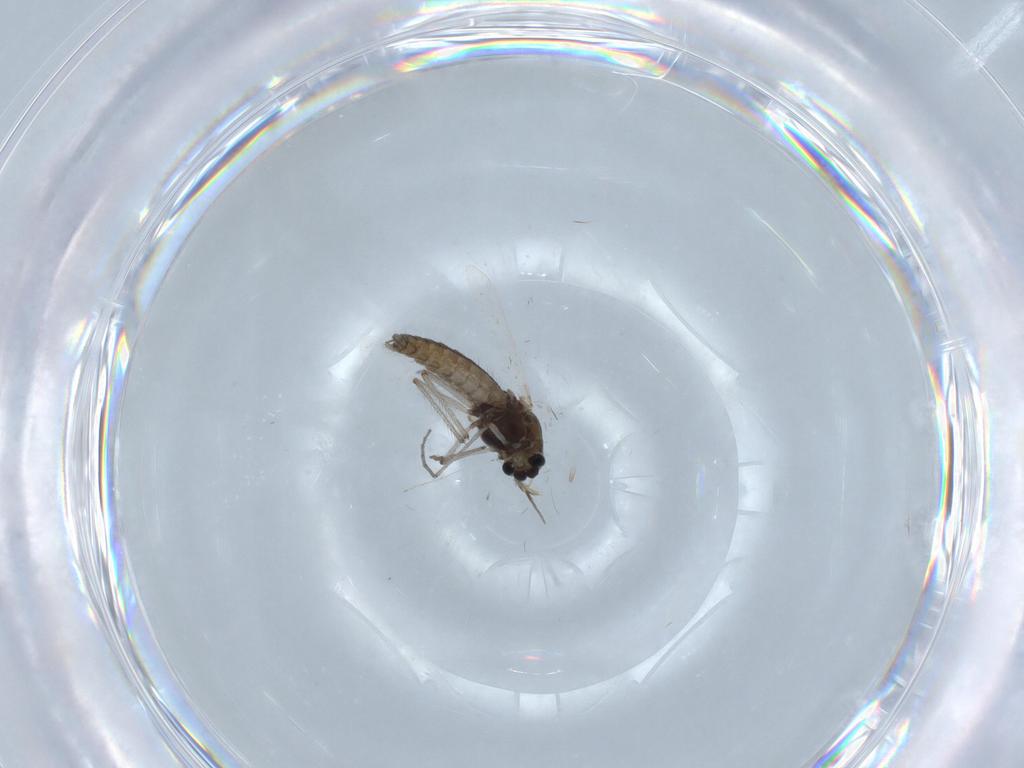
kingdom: Animalia
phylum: Arthropoda
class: Insecta
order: Diptera
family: Chironomidae
